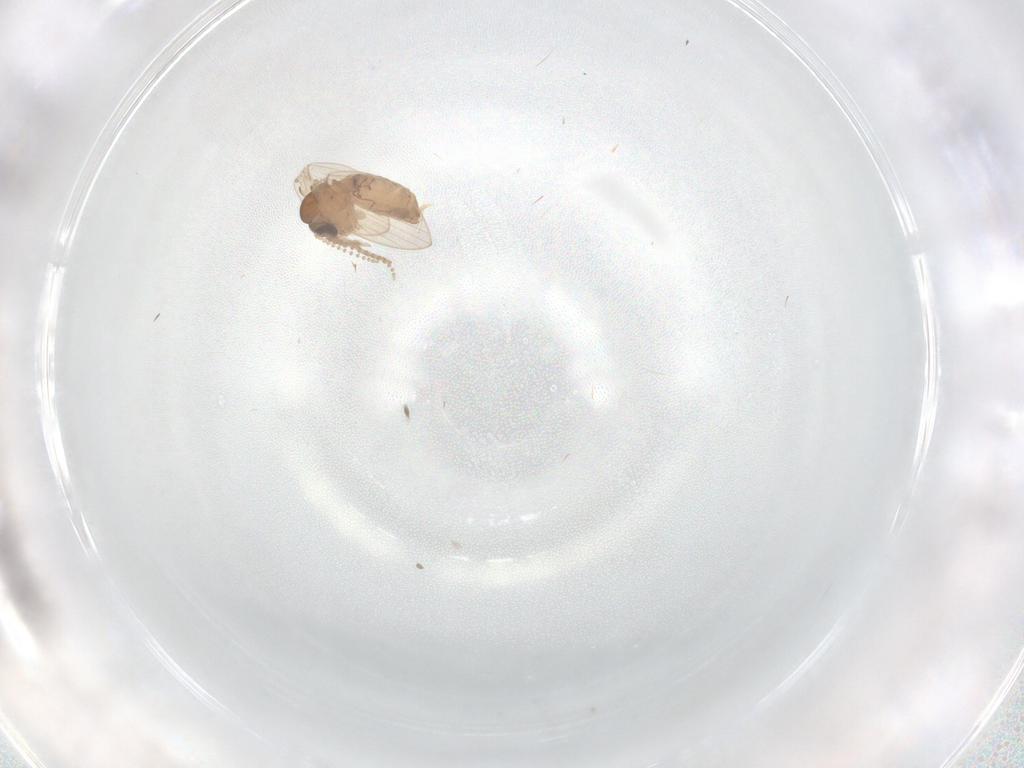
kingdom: Animalia
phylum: Arthropoda
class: Insecta
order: Diptera
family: Psychodidae
